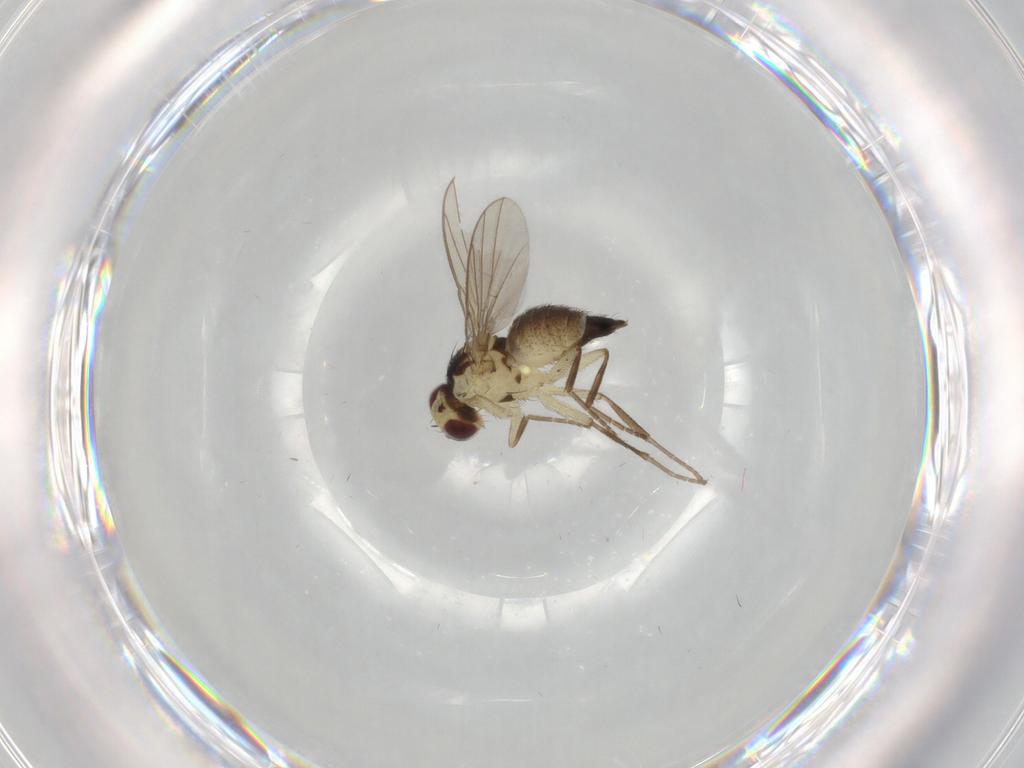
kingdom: Animalia
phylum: Arthropoda
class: Insecta
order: Diptera
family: Agromyzidae
